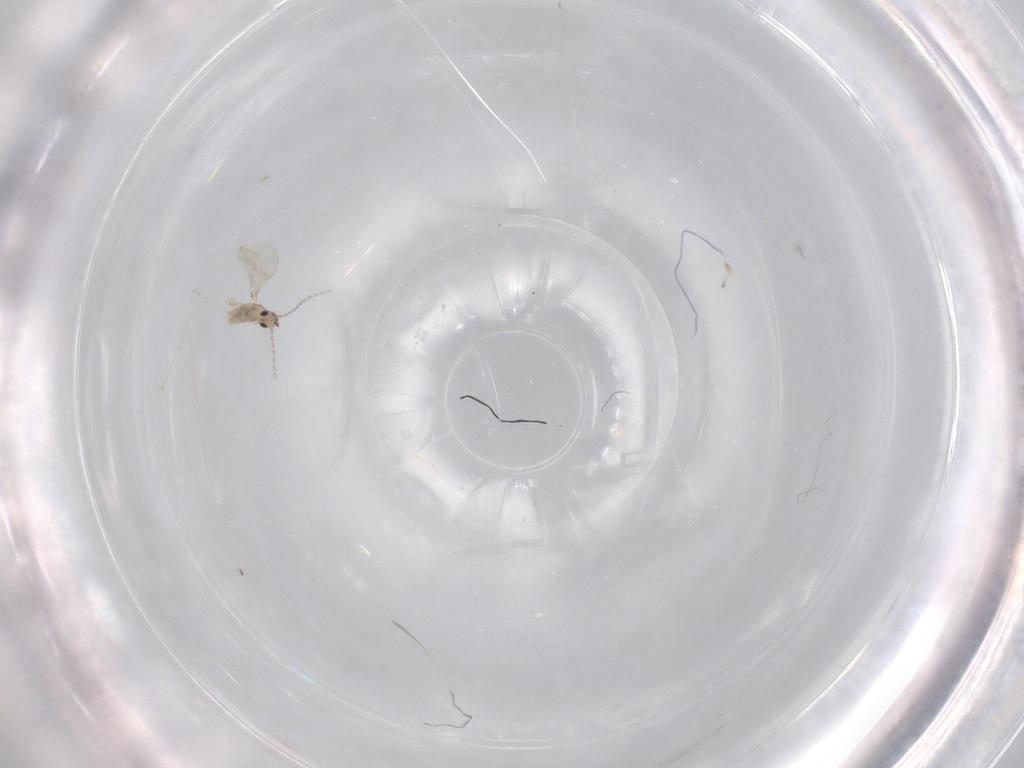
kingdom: Animalia
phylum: Arthropoda
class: Insecta
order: Diptera
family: Cecidomyiidae
